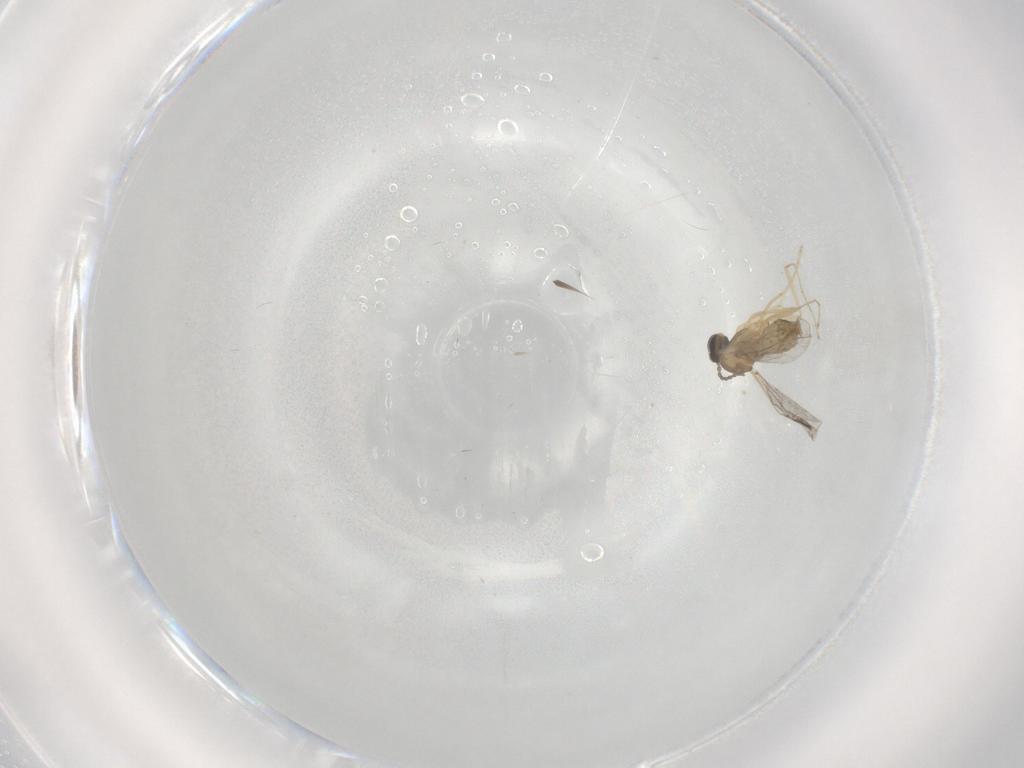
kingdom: Animalia
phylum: Arthropoda
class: Insecta
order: Diptera
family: Cecidomyiidae
